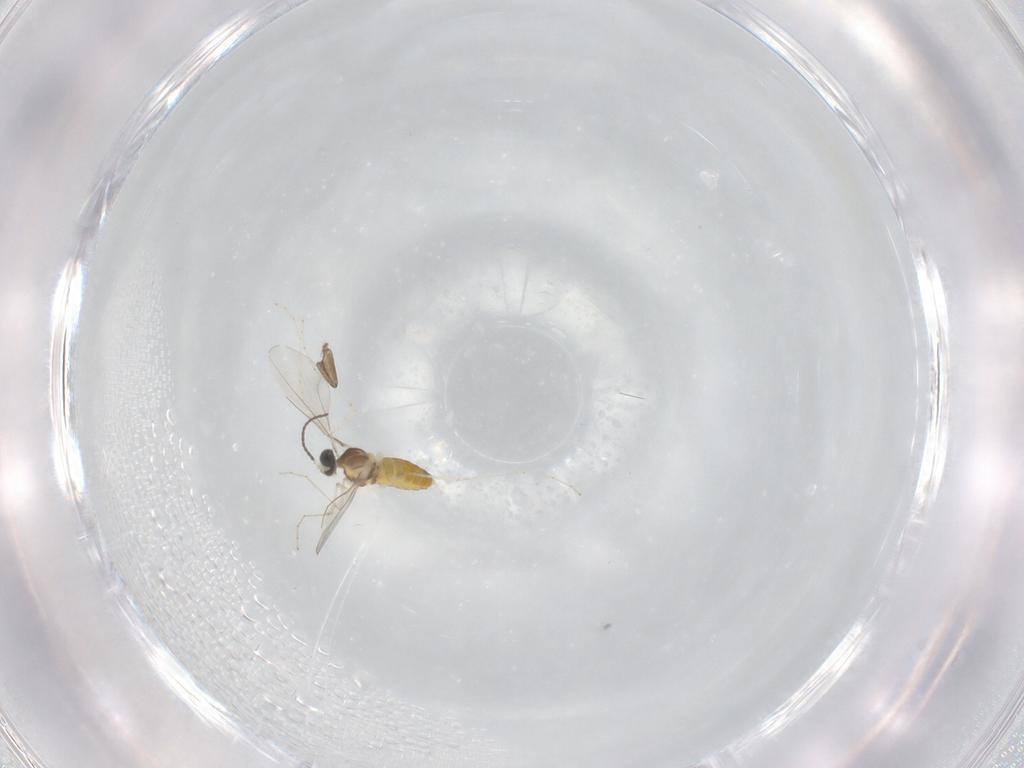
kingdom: Animalia
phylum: Arthropoda
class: Insecta
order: Diptera
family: Cecidomyiidae
